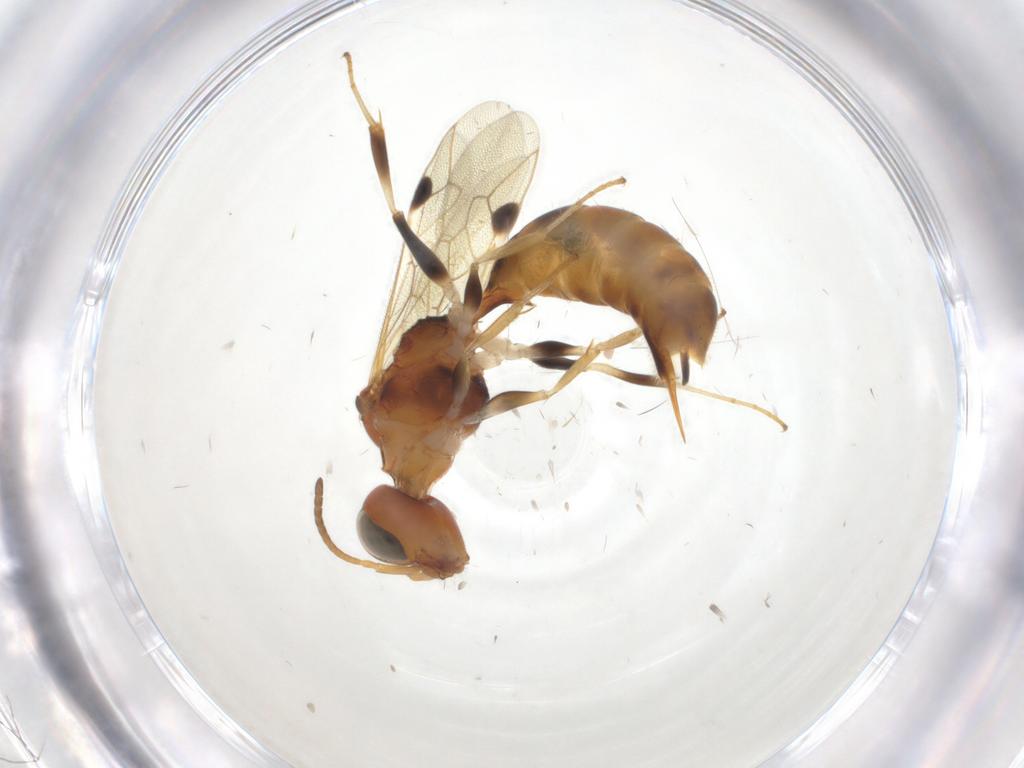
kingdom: Animalia
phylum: Arthropoda
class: Insecta
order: Hymenoptera
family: Pemphredonidae
